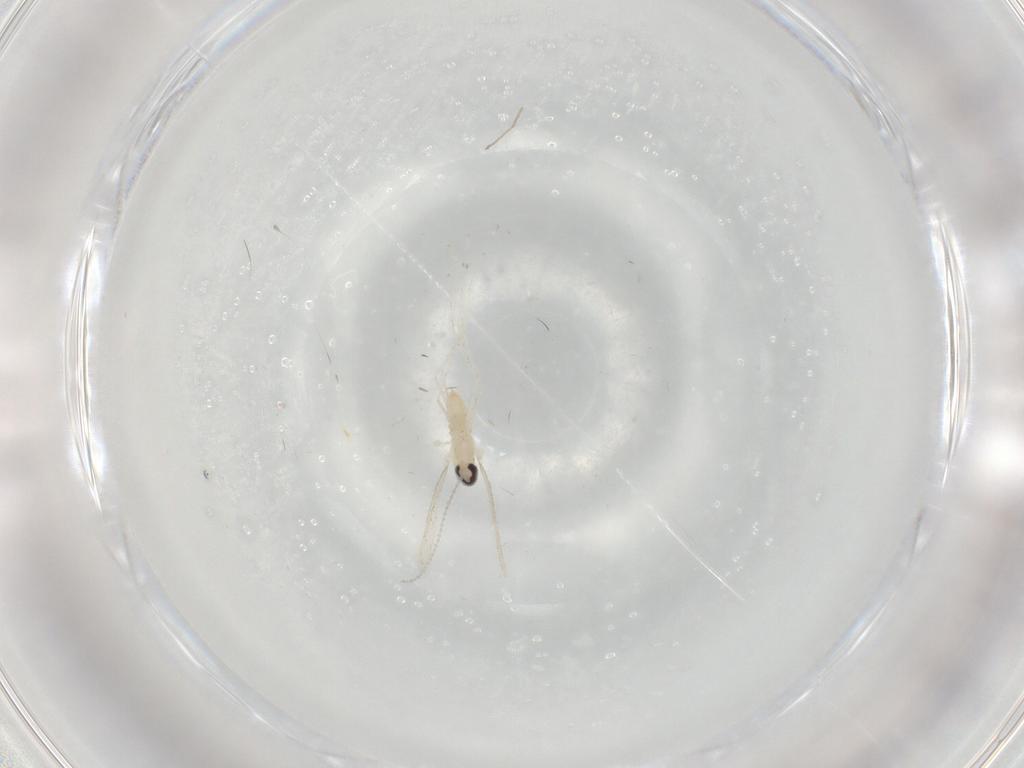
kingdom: Animalia
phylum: Arthropoda
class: Insecta
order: Diptera
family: Cecidomyiidae
